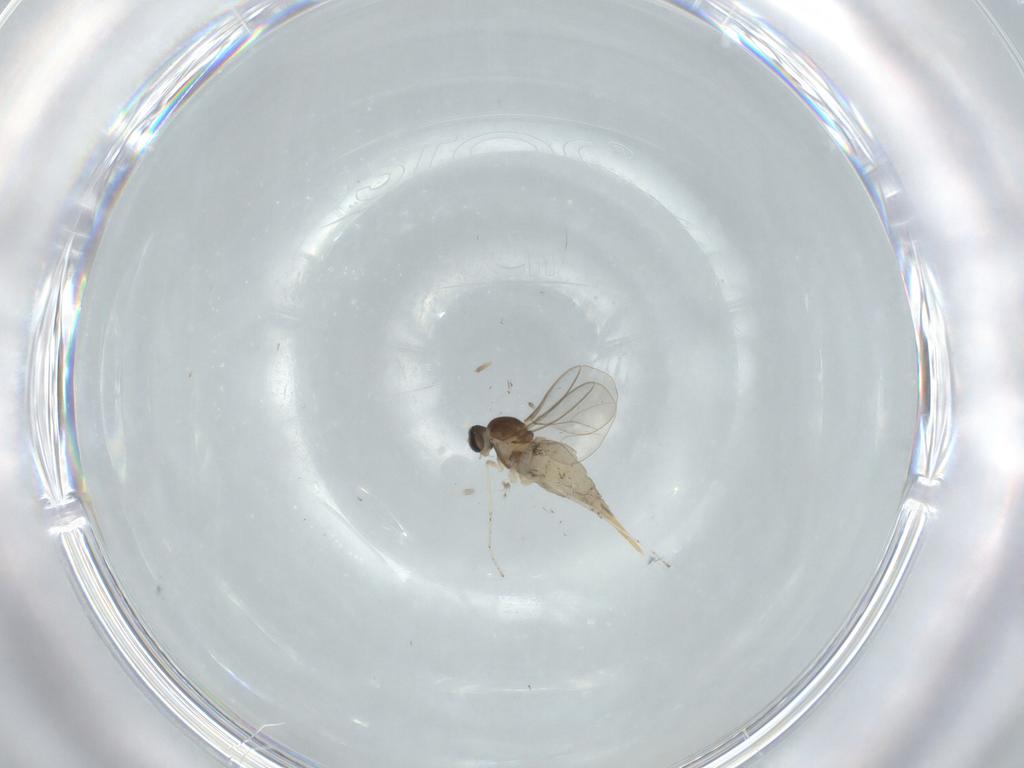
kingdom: Animalia
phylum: Arthropoda
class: Insecta
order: Diptera
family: Cecidomyiidae
